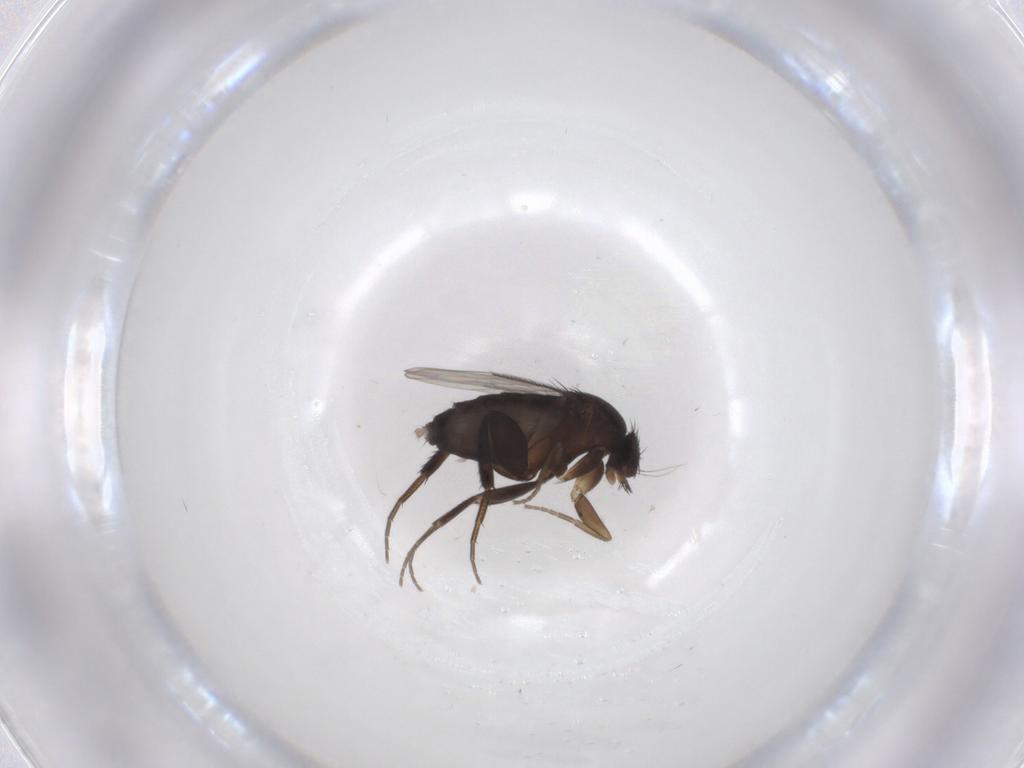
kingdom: Animalia
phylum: Arthropoda
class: Insecta
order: Diptera
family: Phoridae
